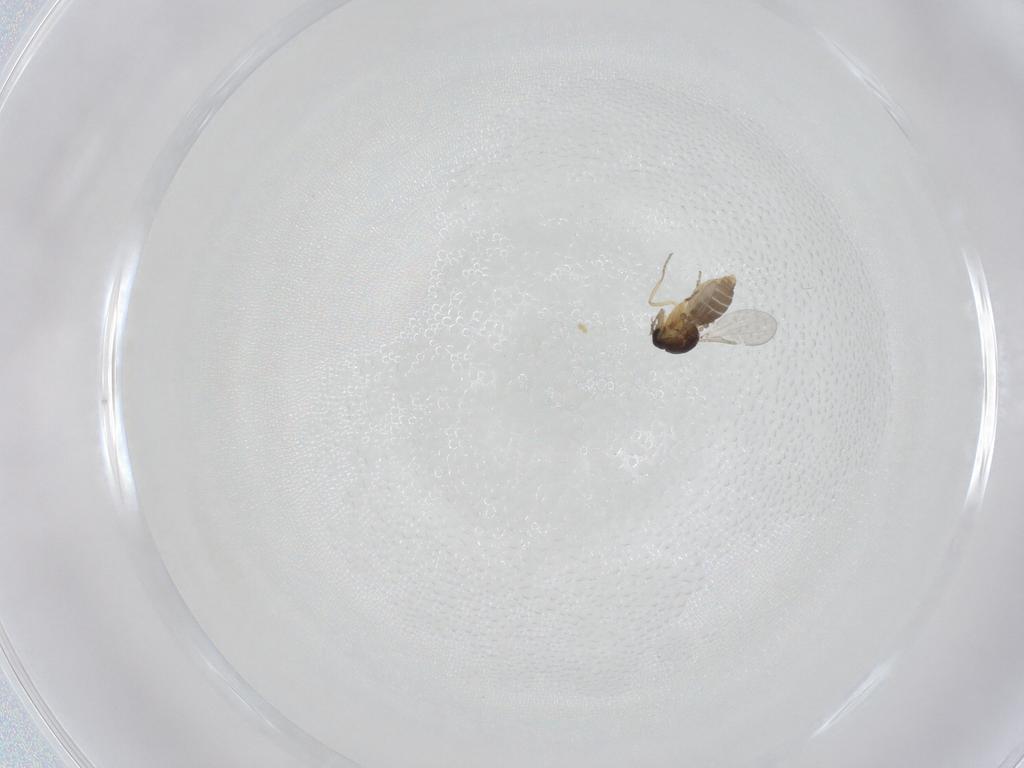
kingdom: Animalia
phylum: Arthropoda
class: Insecta
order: Diptera
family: Ceratopogonidae
